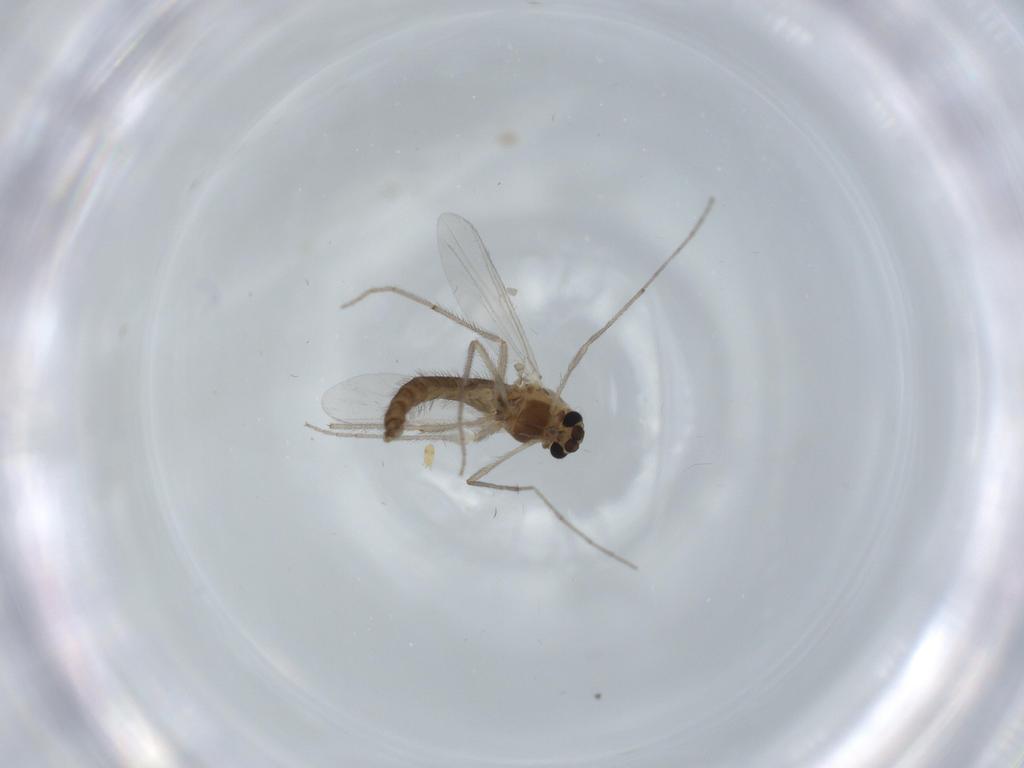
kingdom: Animalia
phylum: Arthropoda
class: Insecta
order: Diptera
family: Chironomidae
